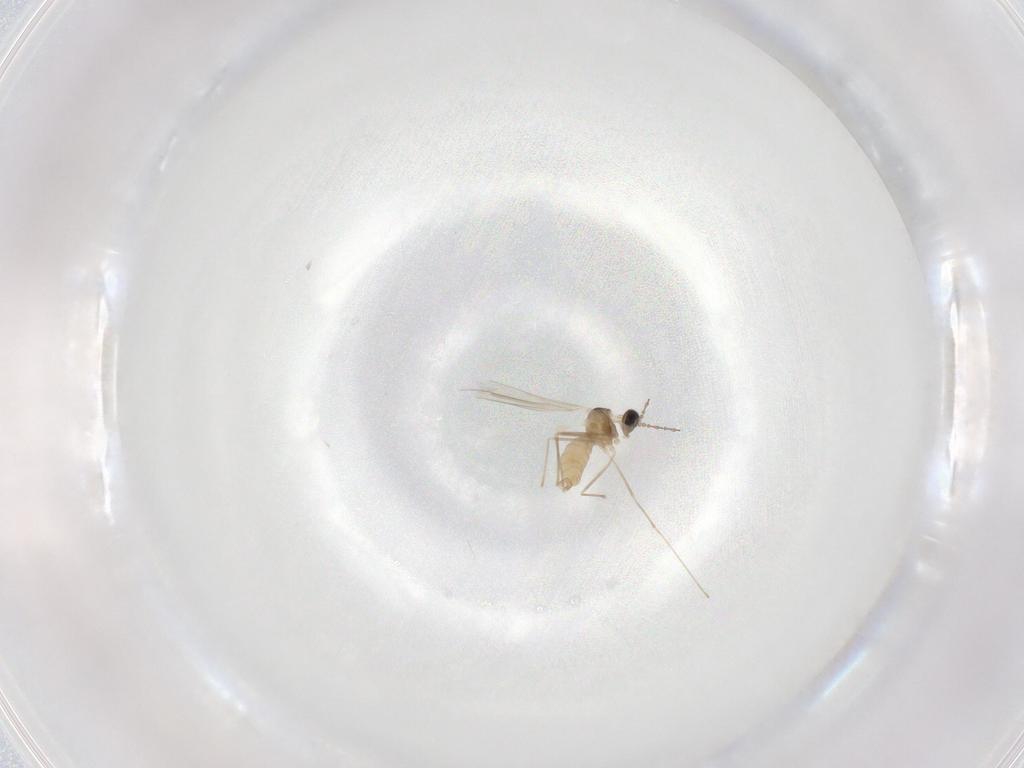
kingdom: Animalia
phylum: Arthropoda
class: Insecta
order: Diptera
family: Cecidomyiidae
